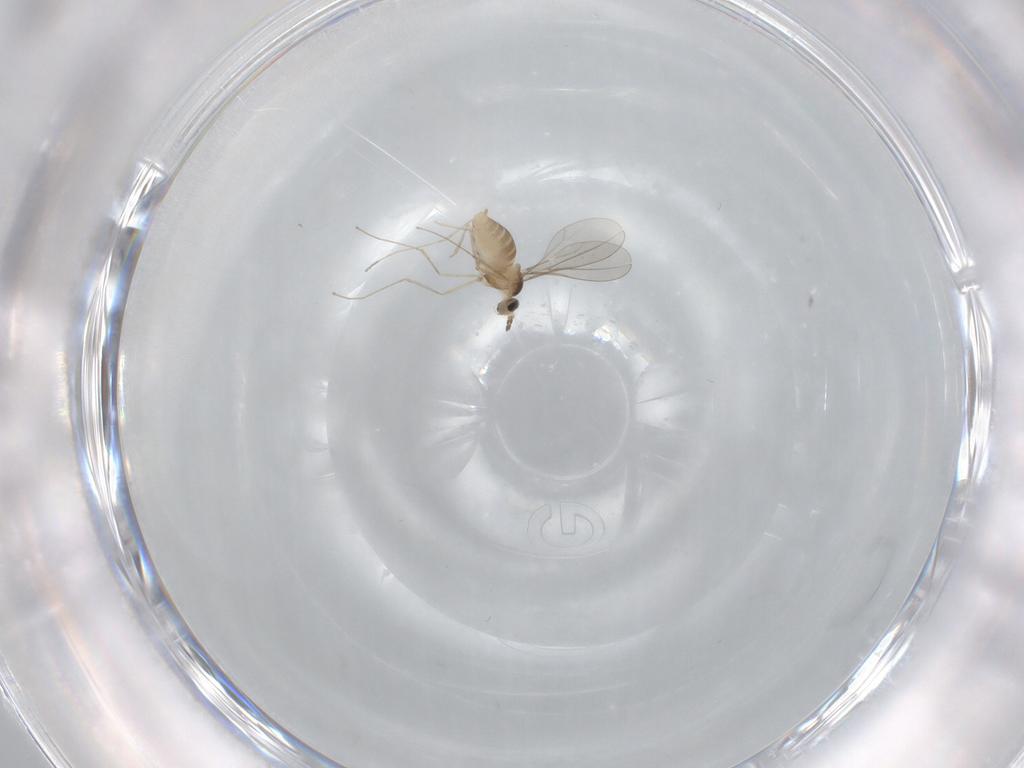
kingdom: Animalia
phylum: Arthropoda
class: Insecta
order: Diptera
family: Cecidomyiidae
